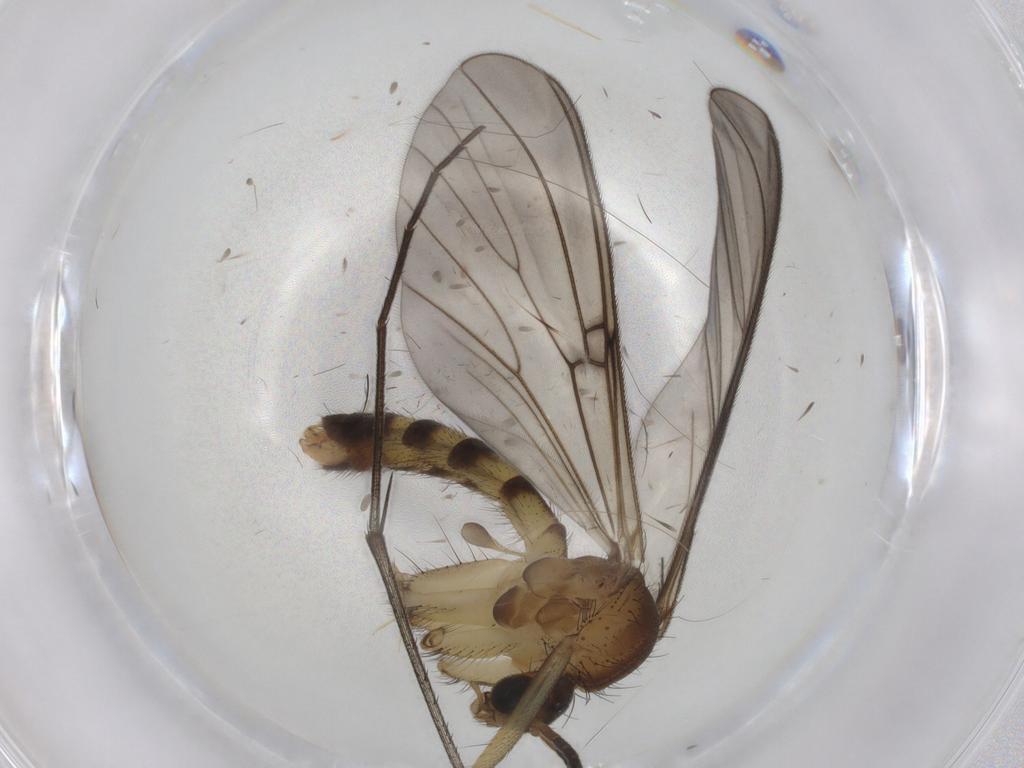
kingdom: Animalia
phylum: Arthropoda
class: Insecta
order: Diptera
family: Mycetophilidae
